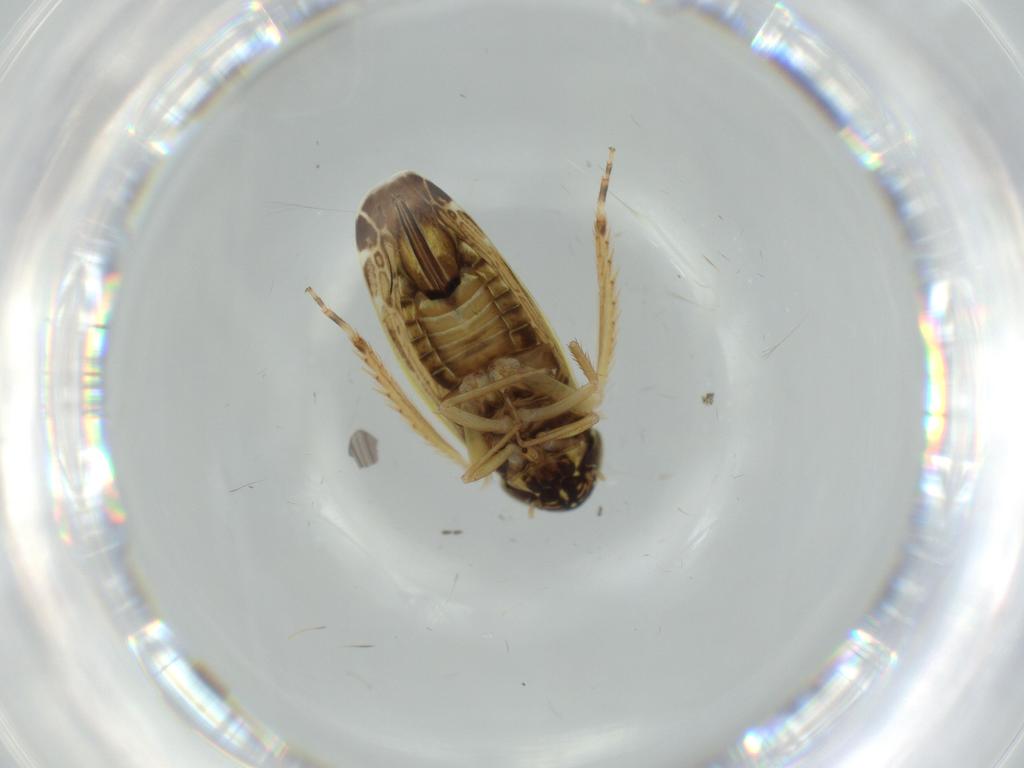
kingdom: Animalia
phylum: Arthropoda
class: Insecta
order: Hemiptera
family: Cicadellidae
